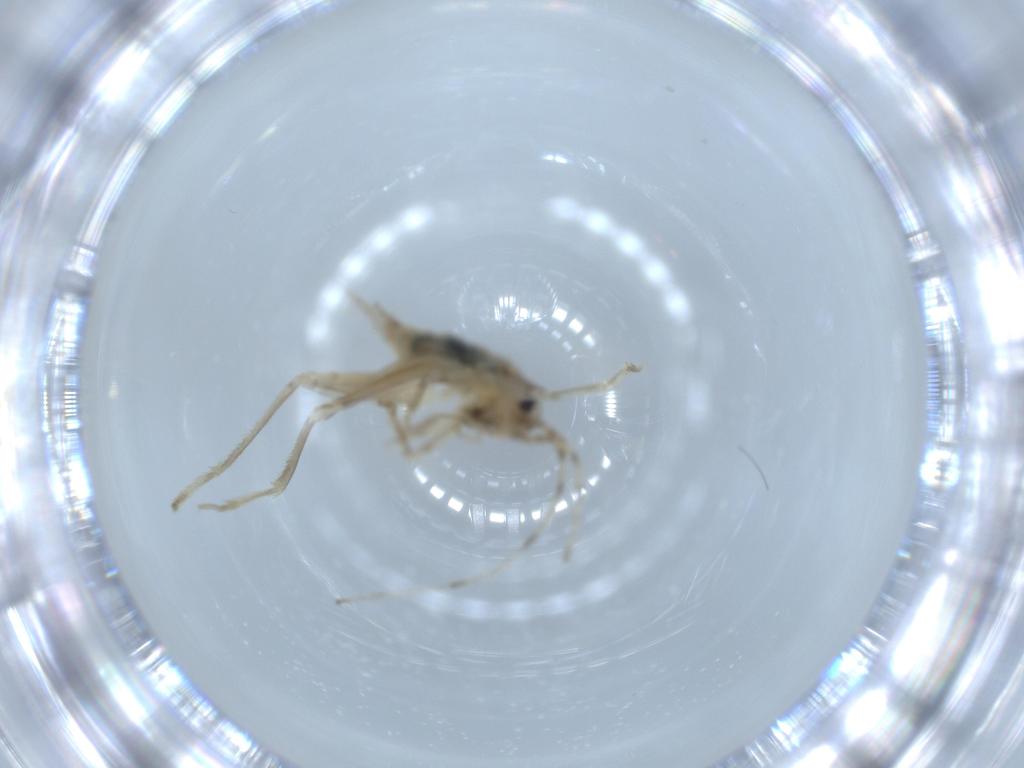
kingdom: Animalia
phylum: Arthropoda
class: Insecta
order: Orthoptera
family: Trigonidiidae
